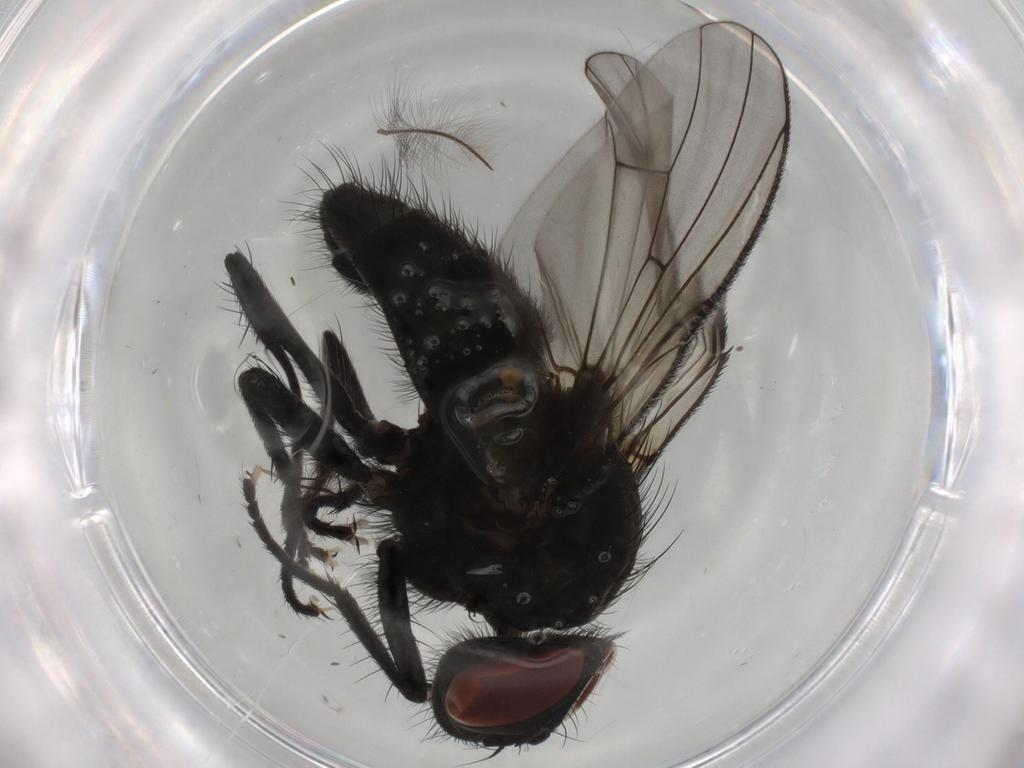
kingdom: Animalia
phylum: Arthropoda
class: Insecta
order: Diptera
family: Muscidae
